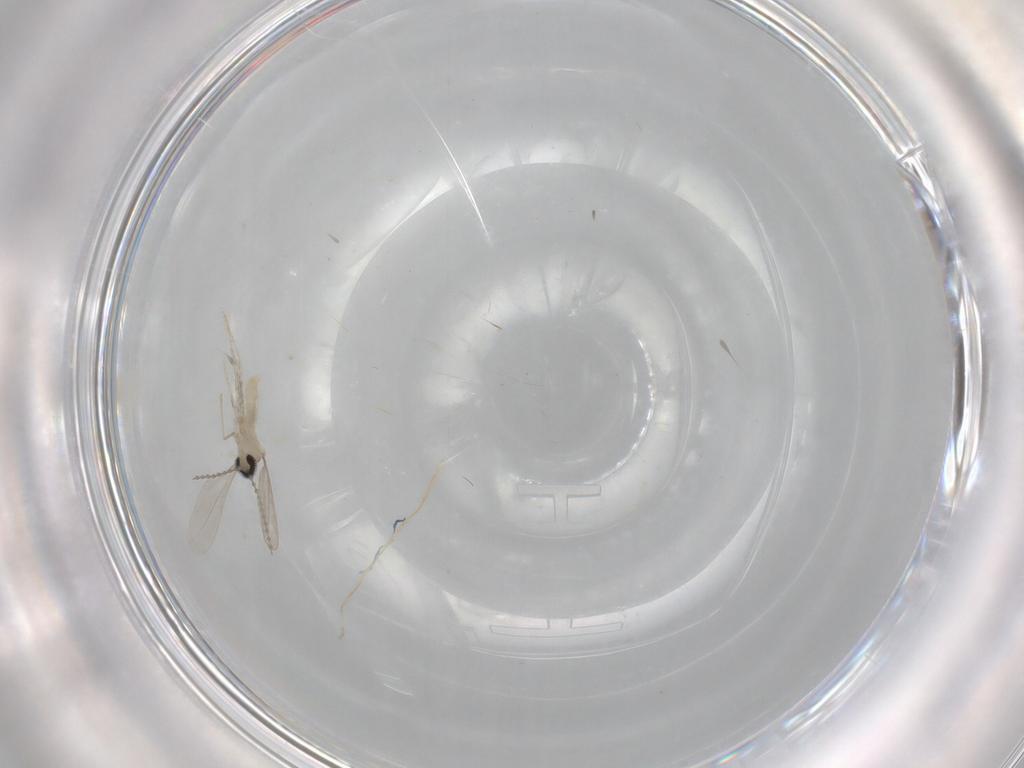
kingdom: Animalia
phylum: Arthropoda
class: Insecta
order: Diptera
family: Cecidomyiidae
